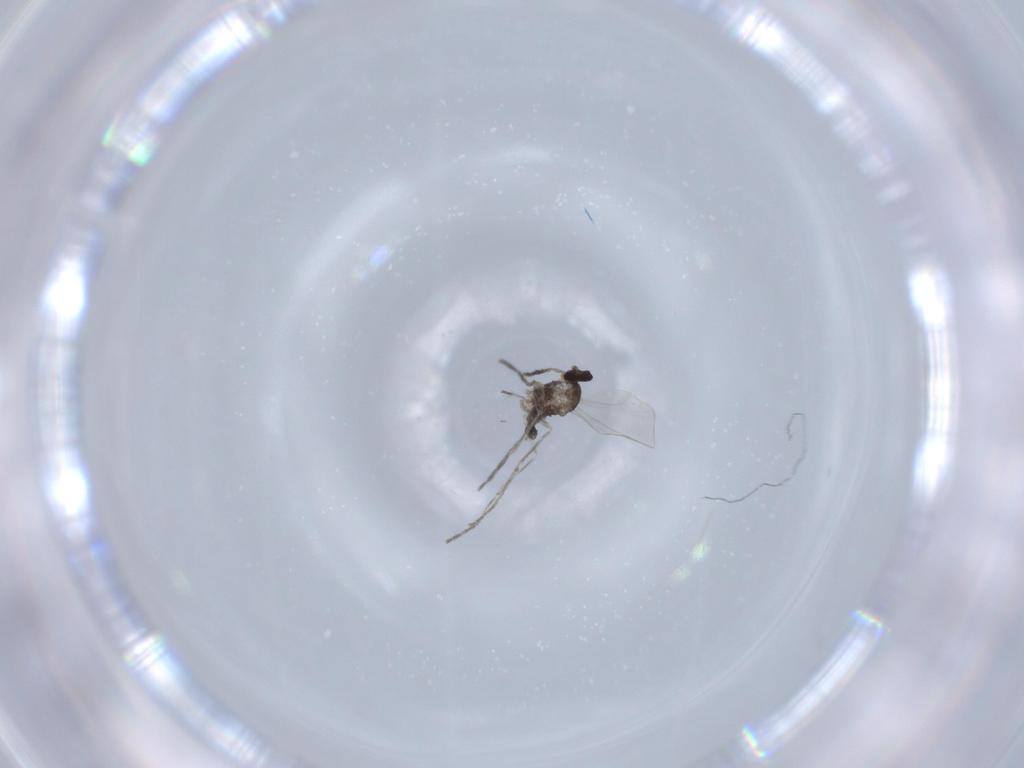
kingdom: Animalia
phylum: Arthropoda
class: Insecta
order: Diptera
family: Cecidomyiidae
